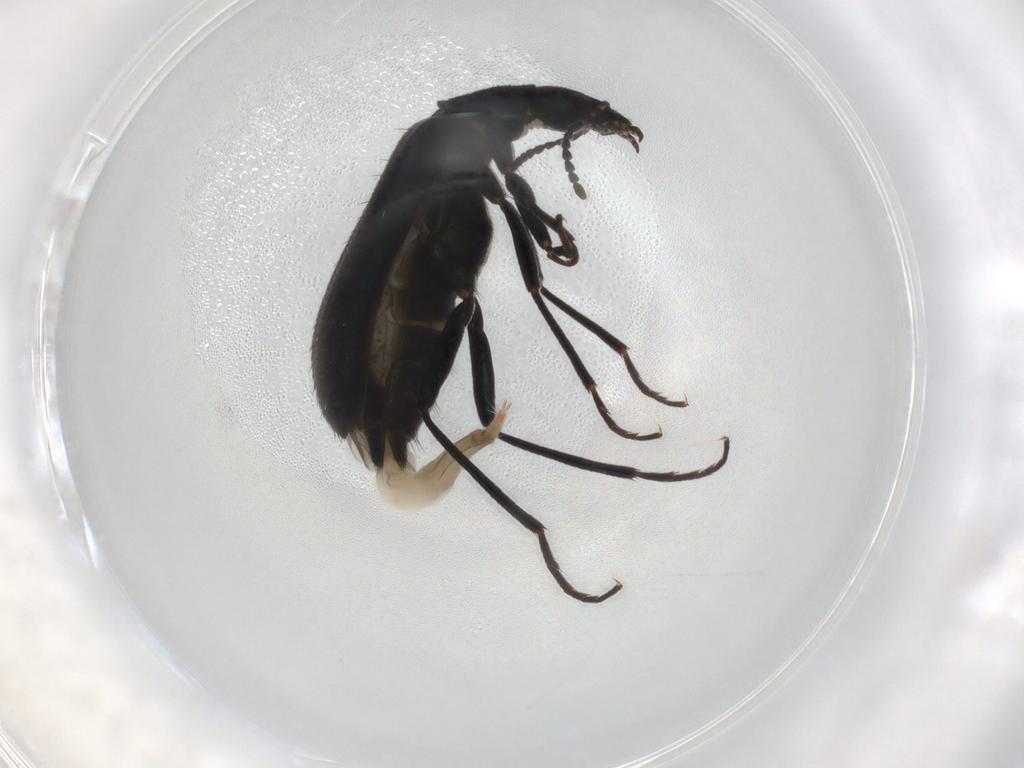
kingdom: Animalia
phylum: Arthropoda
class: Insecta
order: Coleoptera
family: Melyridae
